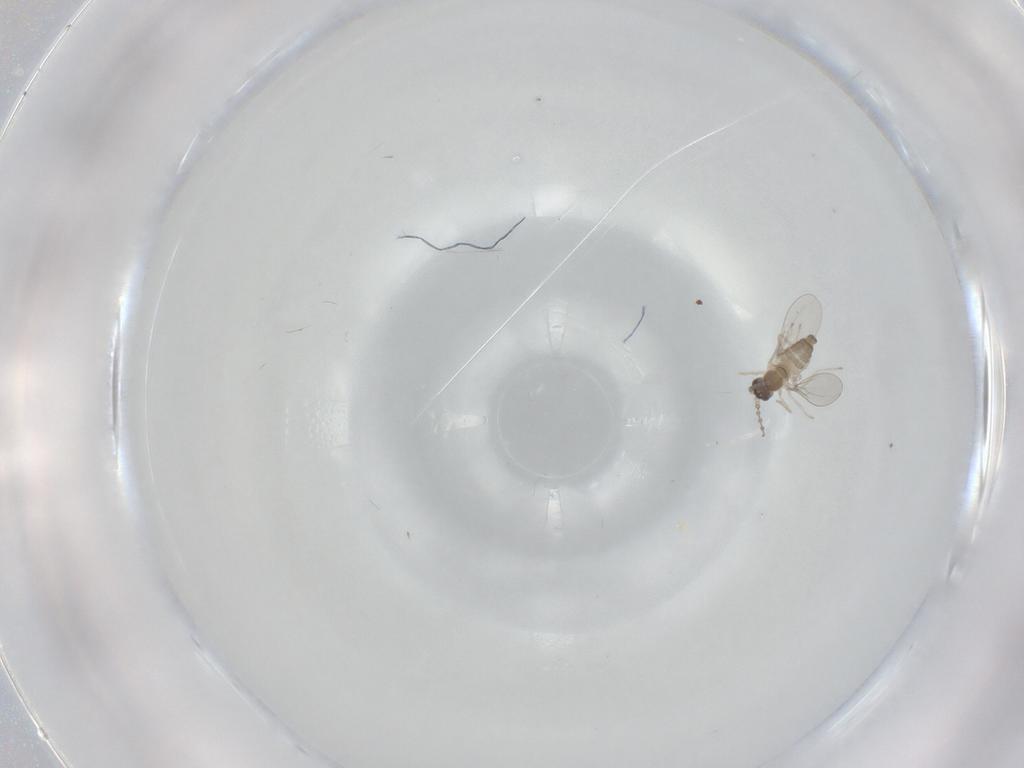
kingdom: Animalia
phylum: Arthropoda
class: Insecta
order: Diptera
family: Cecidomyiidae
